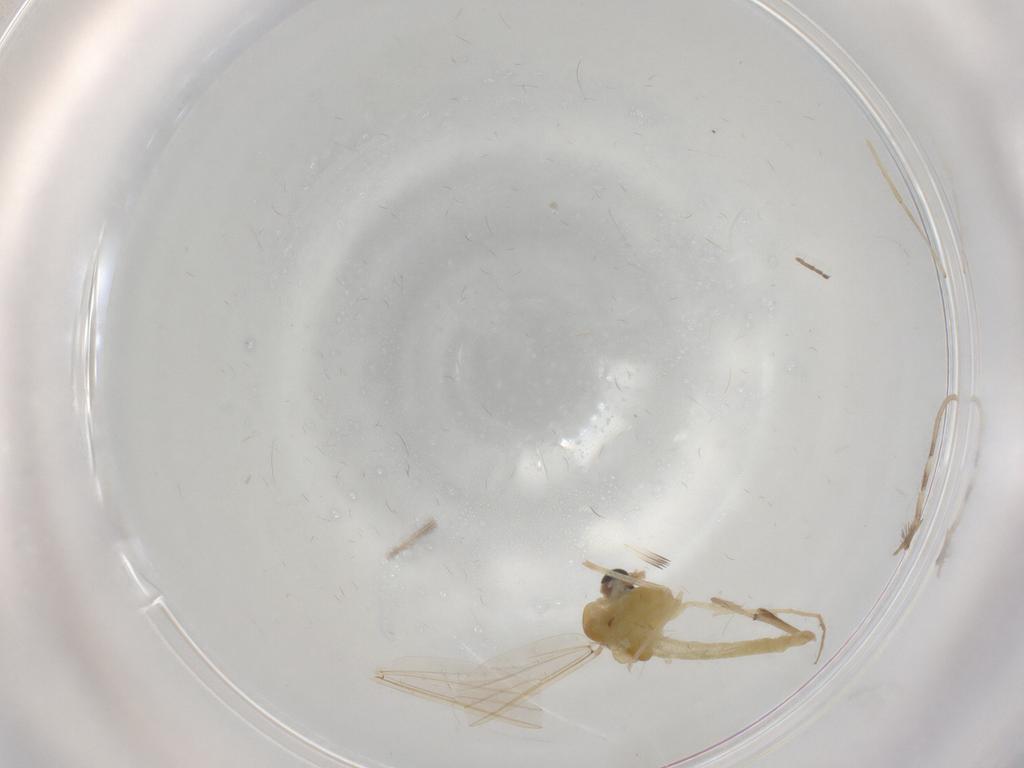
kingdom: Animalia
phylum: Arthropoda
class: Insecta
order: Diptera
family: Chironomidae
